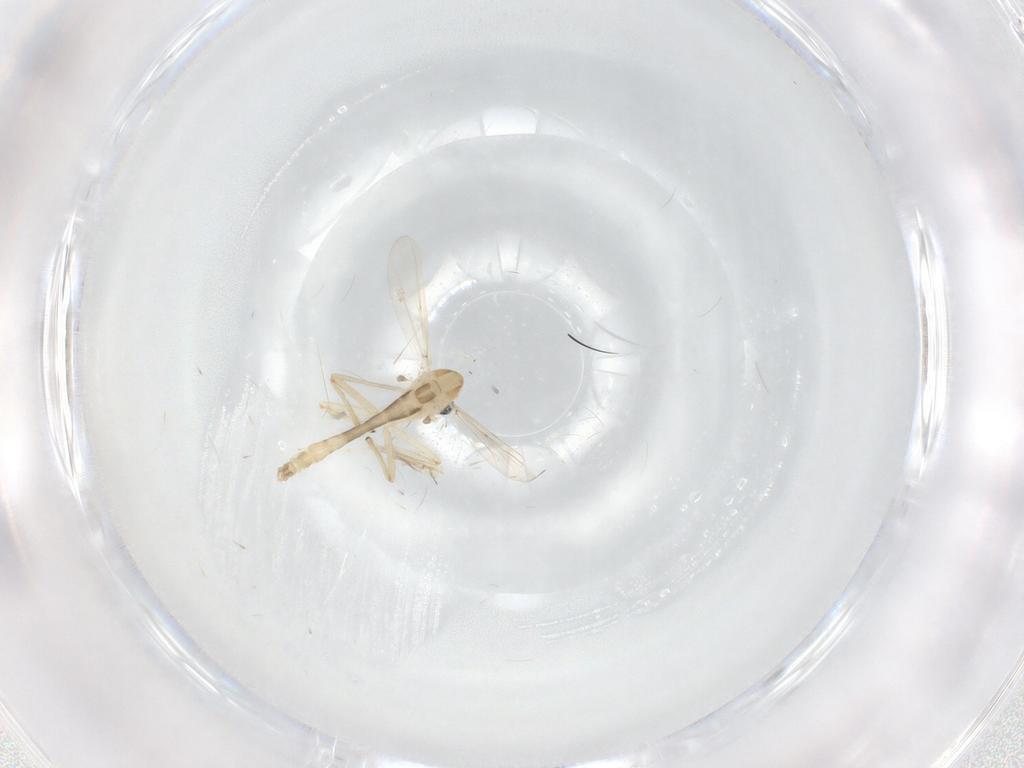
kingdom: Animalia
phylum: Arthropoda
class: Insecta
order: Diptera
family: Chironomidae
